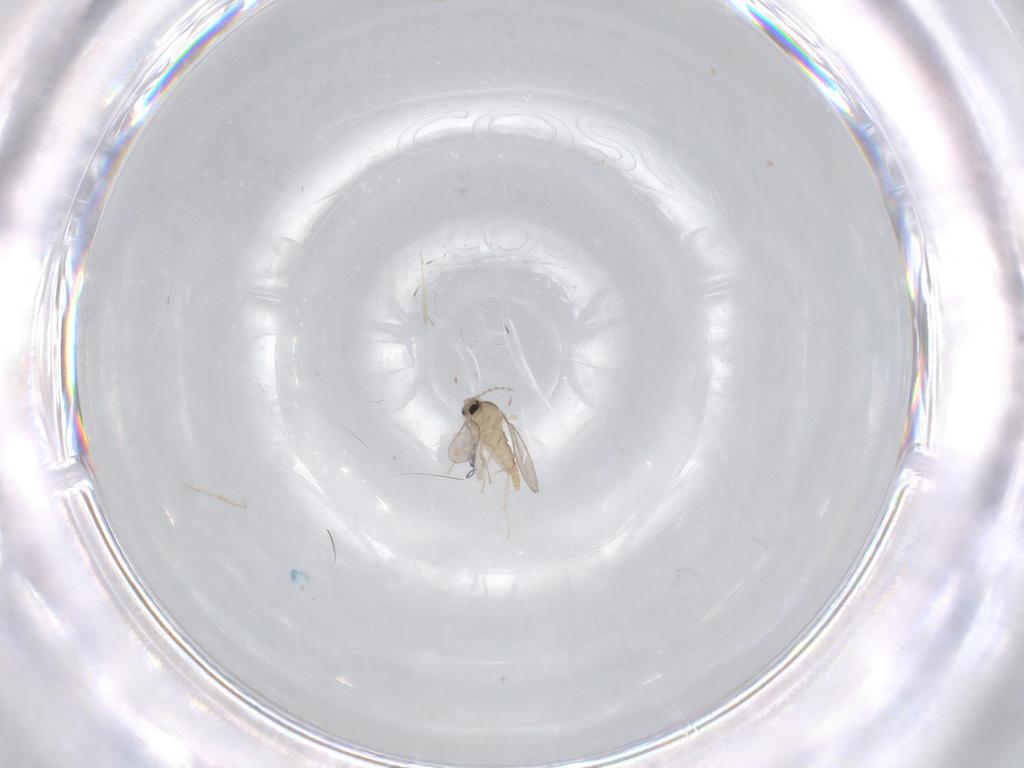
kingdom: Animalia
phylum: Arthropoda
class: Insecta
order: Diptera
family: Cecidomyiidae
